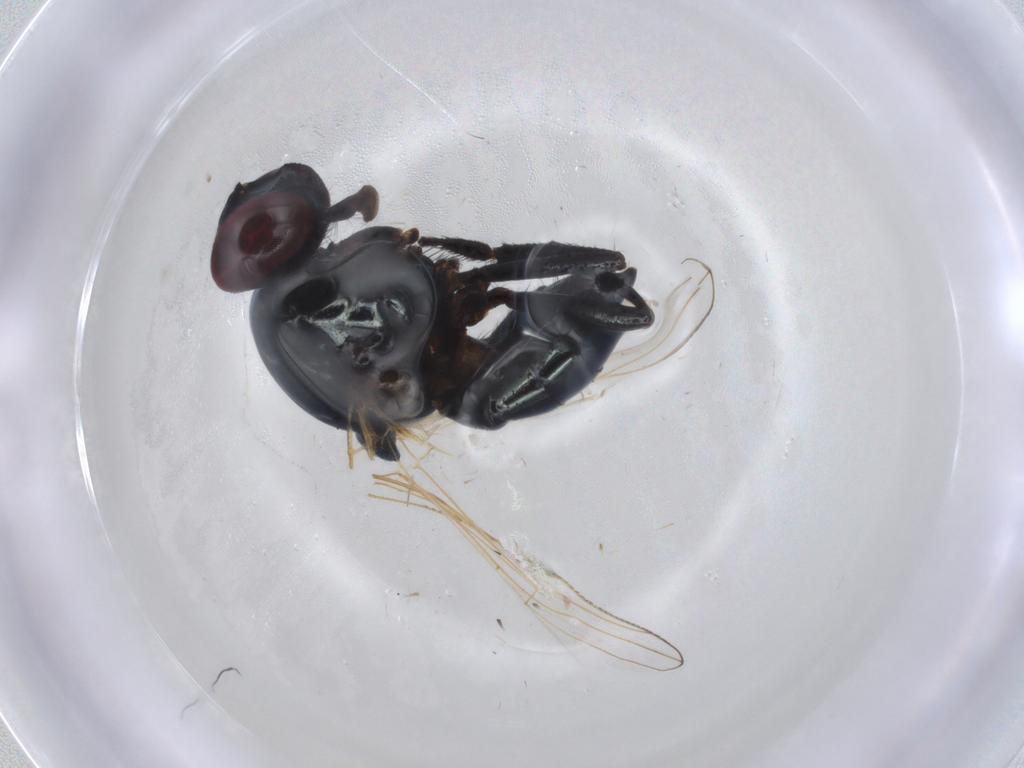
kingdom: Animalia
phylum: Arthropoda
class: Insecta
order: Diptera
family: Muscidae
